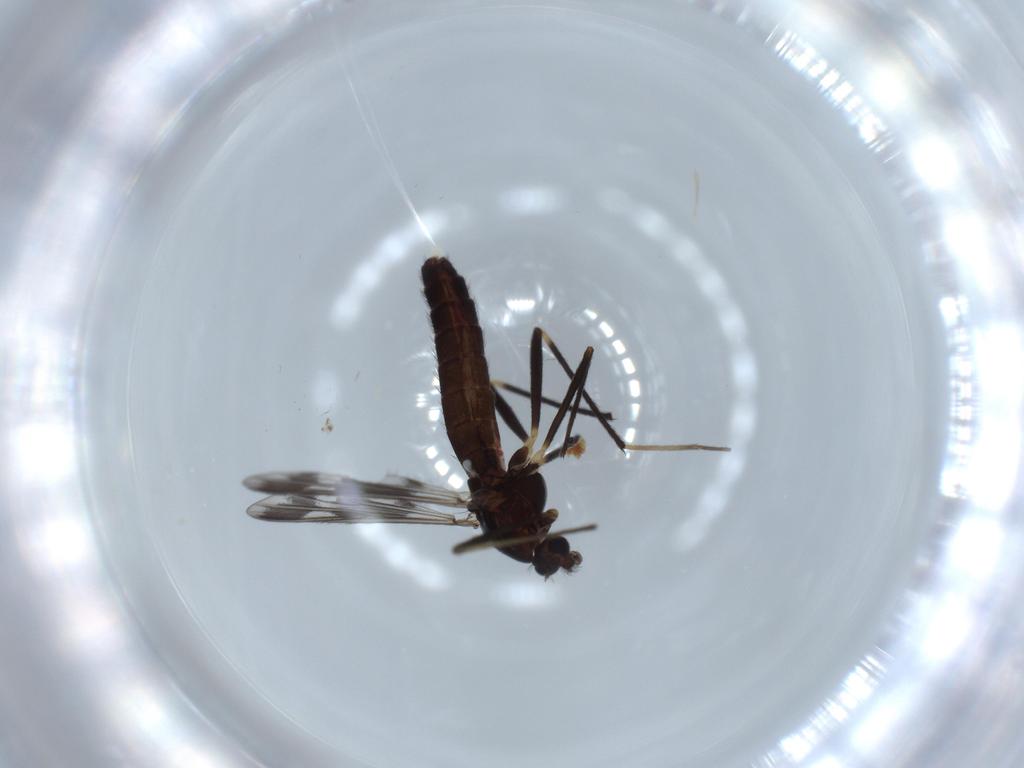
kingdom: Animalia
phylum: Arthropoda
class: Insecta
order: Diptera
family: Chironomidae
